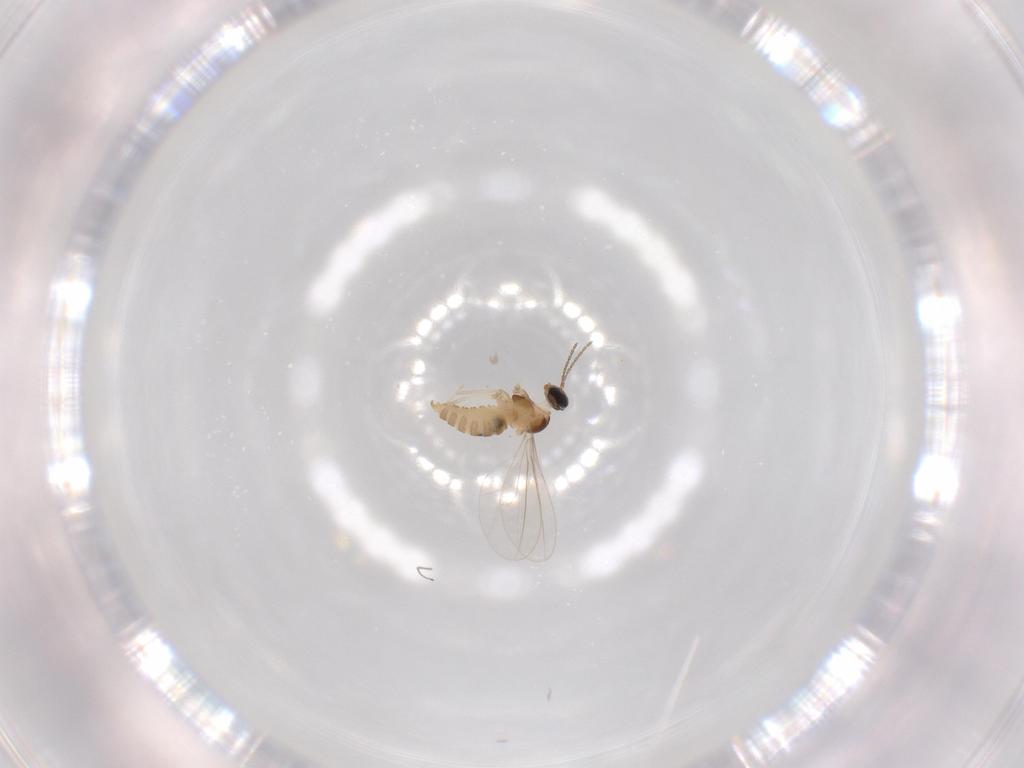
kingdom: Animalia
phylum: Arthropoda
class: Insecta
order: Diptera
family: Cecidomyiidae
